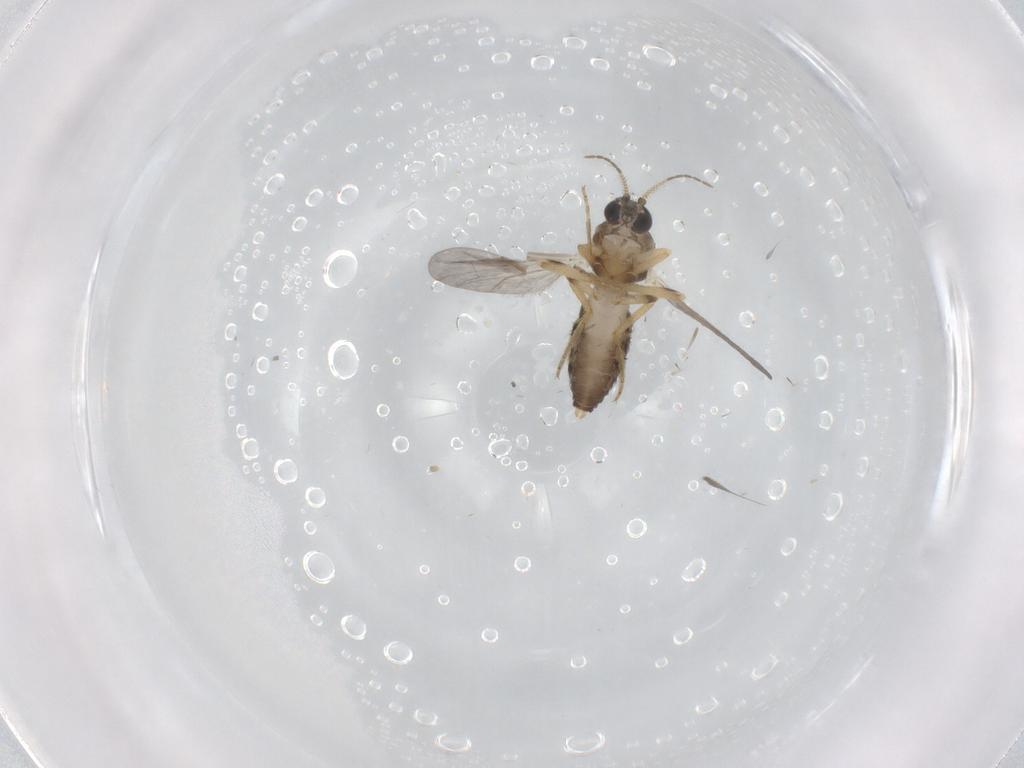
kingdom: Animalia
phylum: Arthropoda
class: Insecta
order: Diptera
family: Ceratopogonidae
